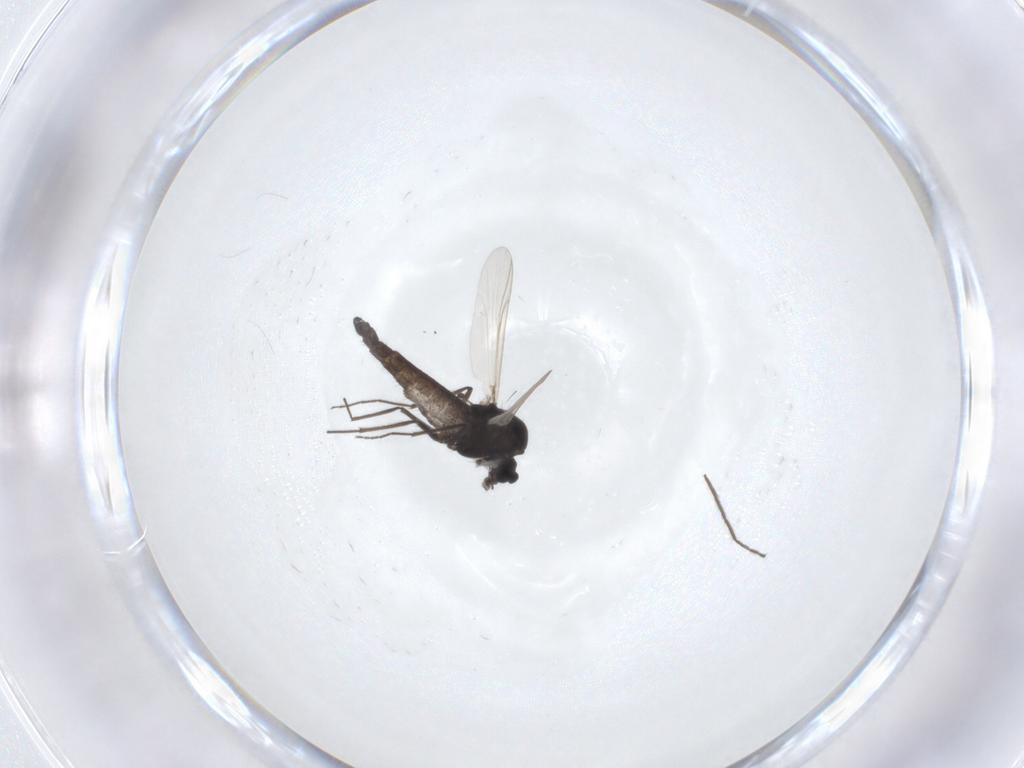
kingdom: Animalia
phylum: Arthropoda
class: Insecta
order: Diptera
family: Chironomidae
